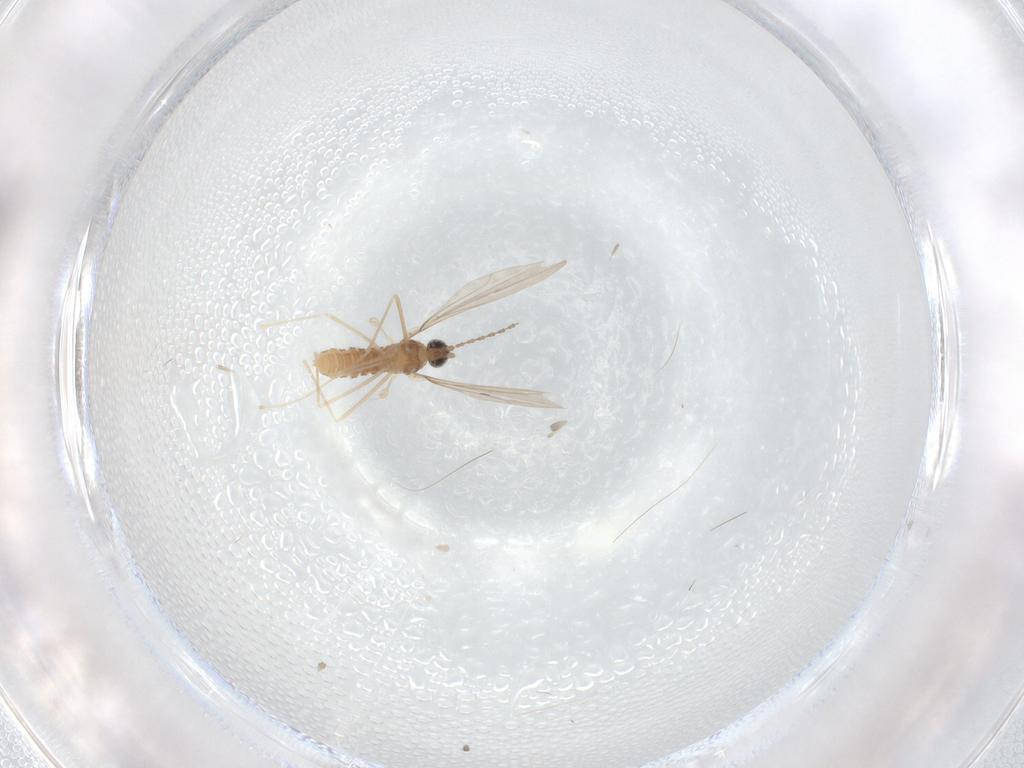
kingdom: Animalia
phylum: Arthropoda
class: Insecta
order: Diptera
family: Cecidomyiidae
